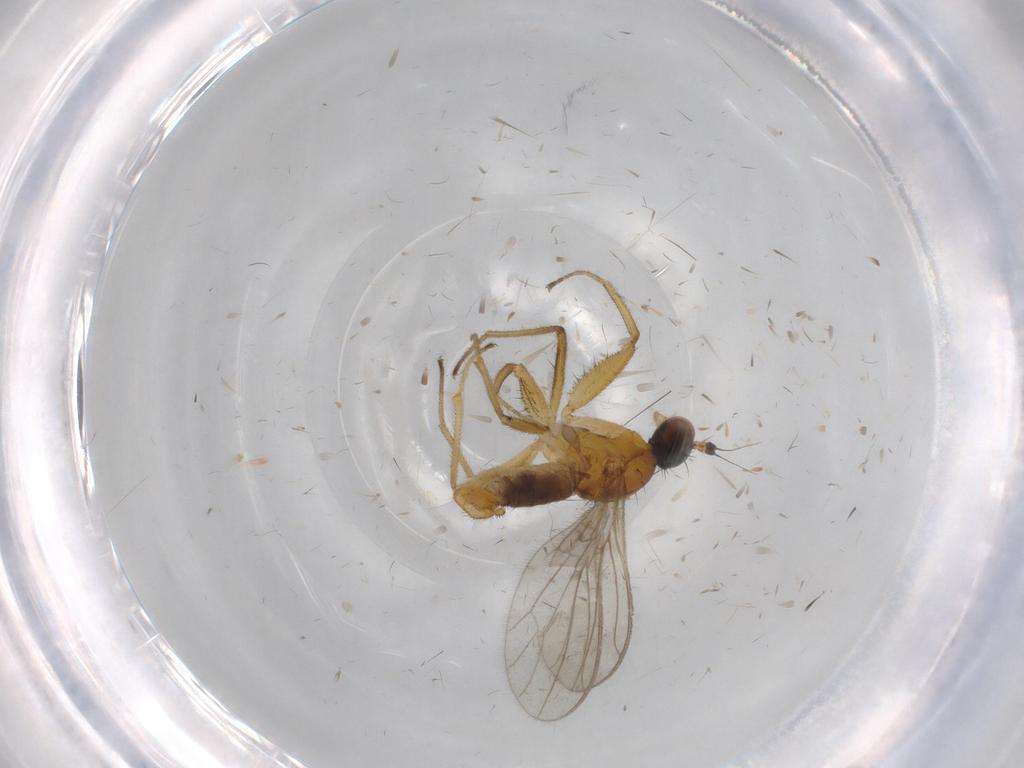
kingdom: Animalia
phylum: Arthropoda
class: Insecta
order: Diptera
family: Empididae
